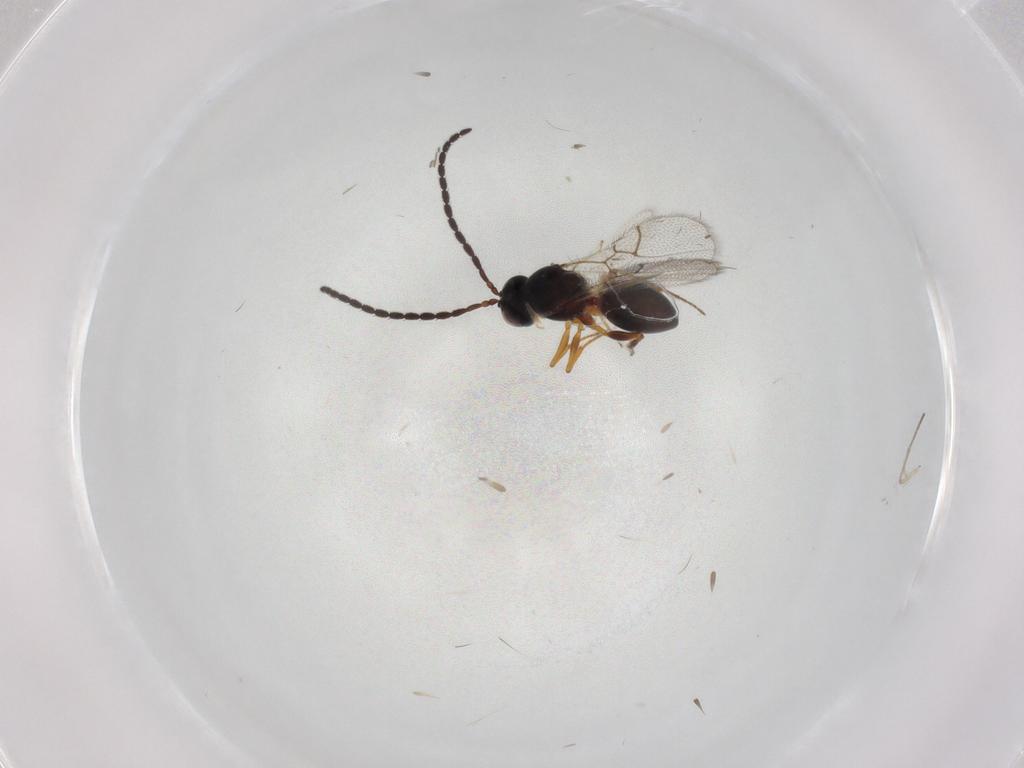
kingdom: Animalia
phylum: Arthropoda
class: Insecta
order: Hymenoptera
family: Figitidae
